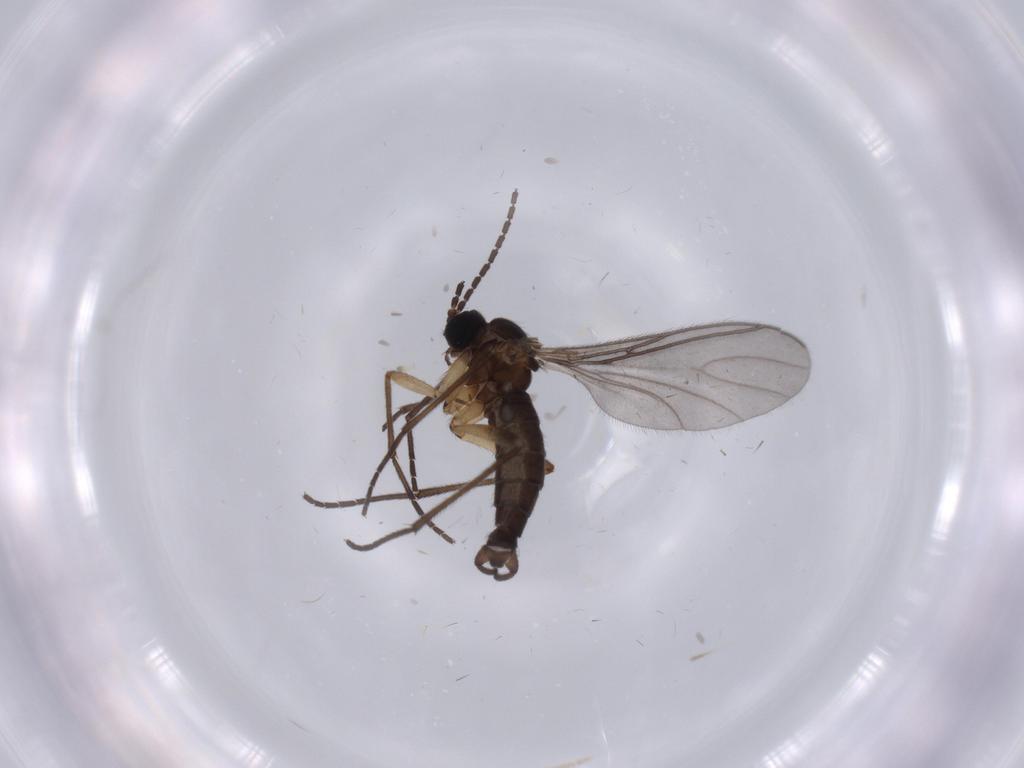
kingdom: Animalia
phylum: Arthropoda
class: Insecta
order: Diptera
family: Sciaridae
